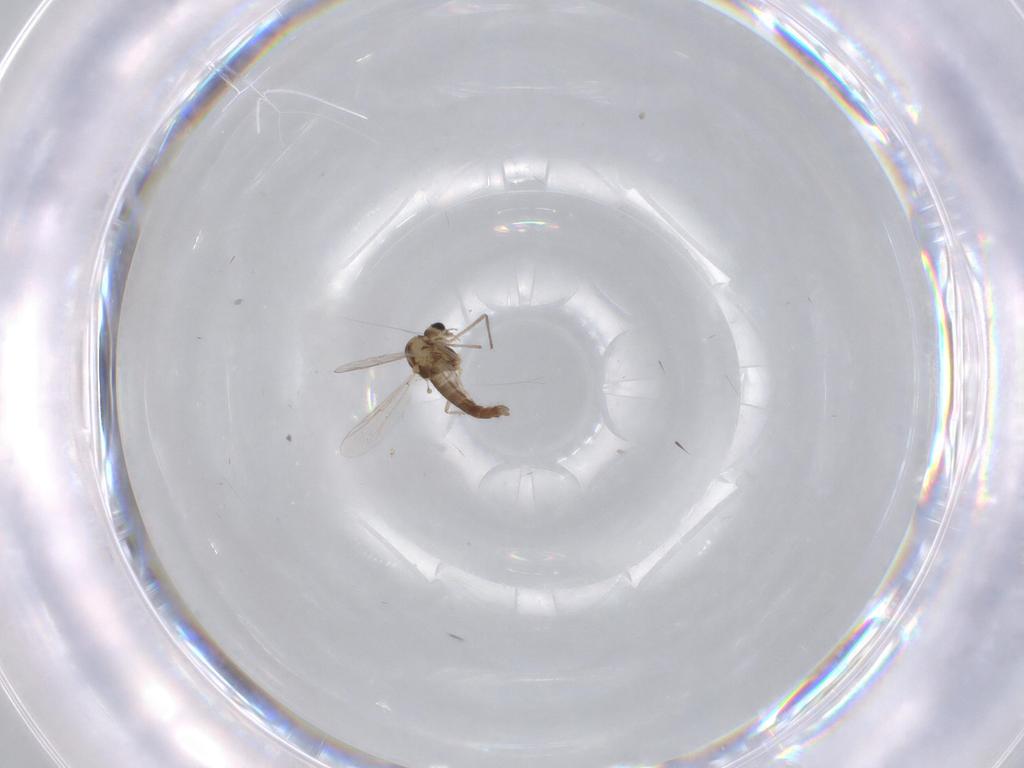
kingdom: Animalia
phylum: Arthropoda
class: Insecta
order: Diptera
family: Chironomidae
